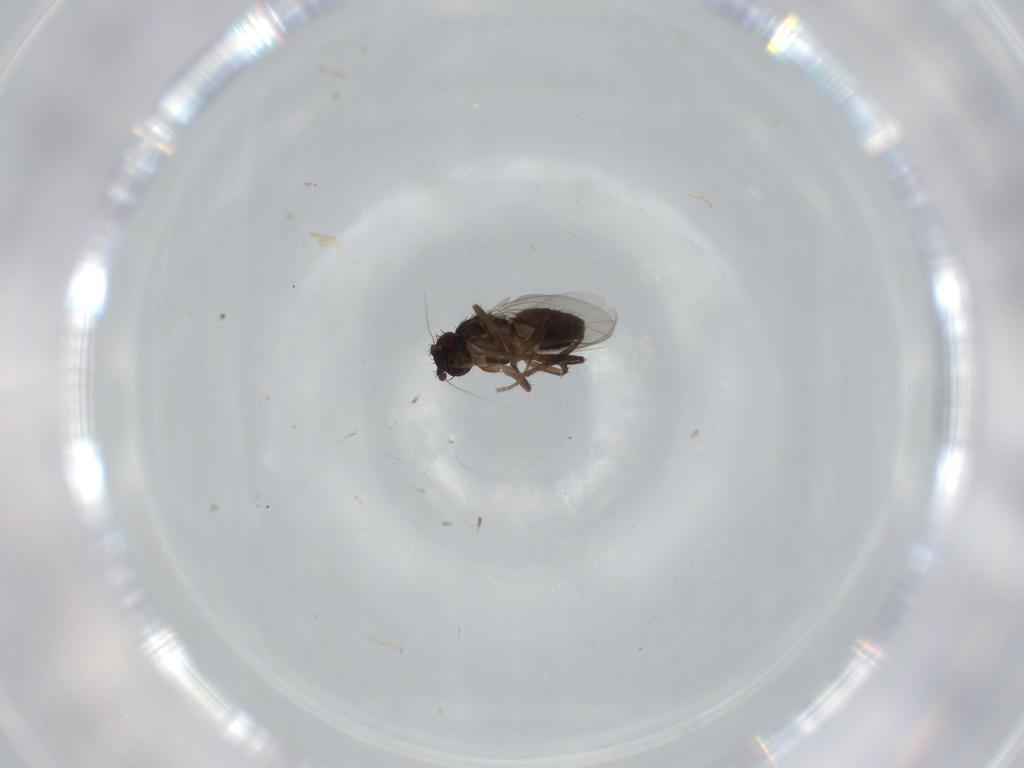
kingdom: Animalia
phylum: Arthropoda
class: Insecta
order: Diptera
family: Sphaeroceridae
